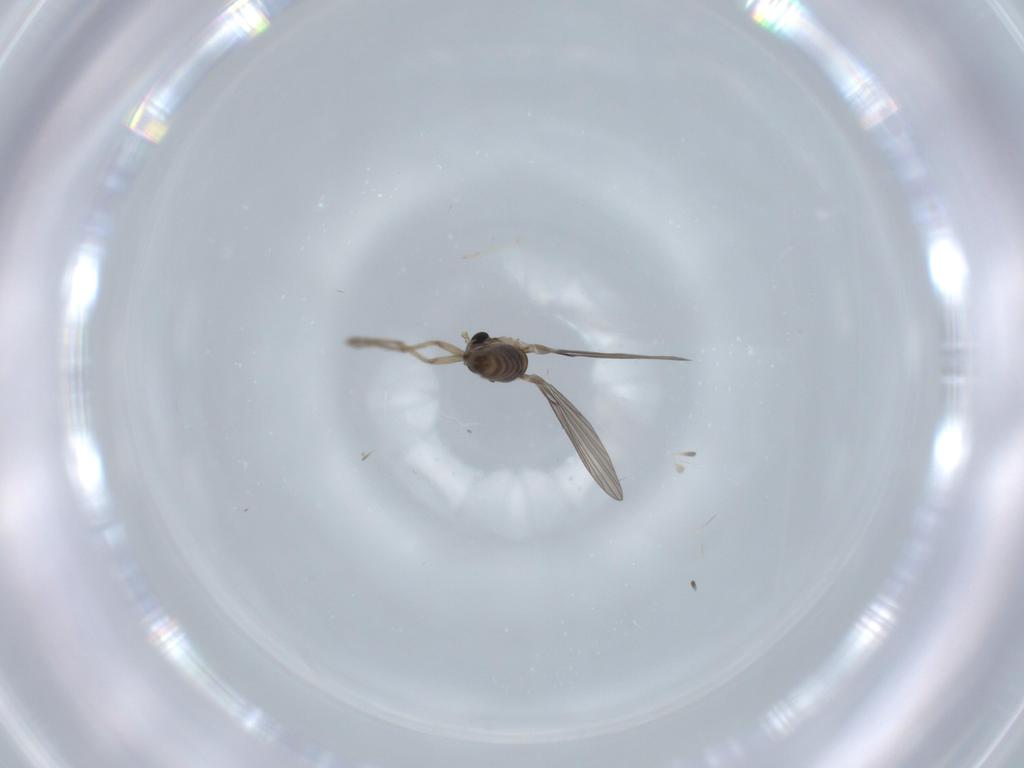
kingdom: Animalia
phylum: Arthropoda
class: Insecta
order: Diptera
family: Psychodidae
